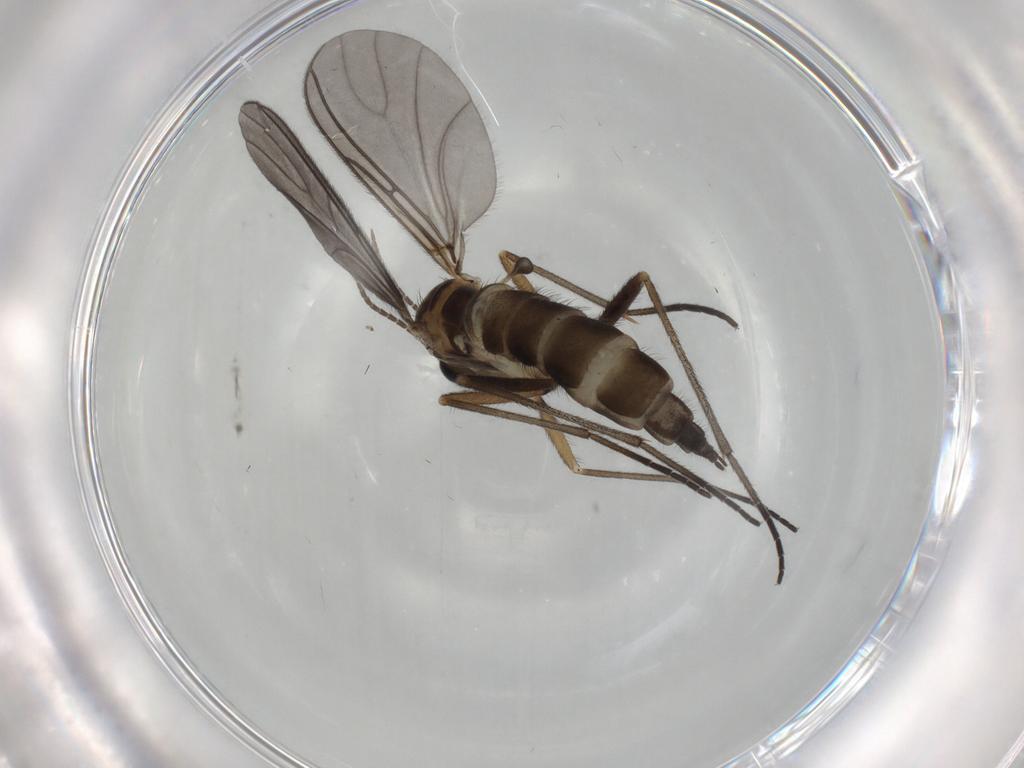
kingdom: Animalia
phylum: Arthropoda
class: Insecta
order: Diptera
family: Sciaridae
